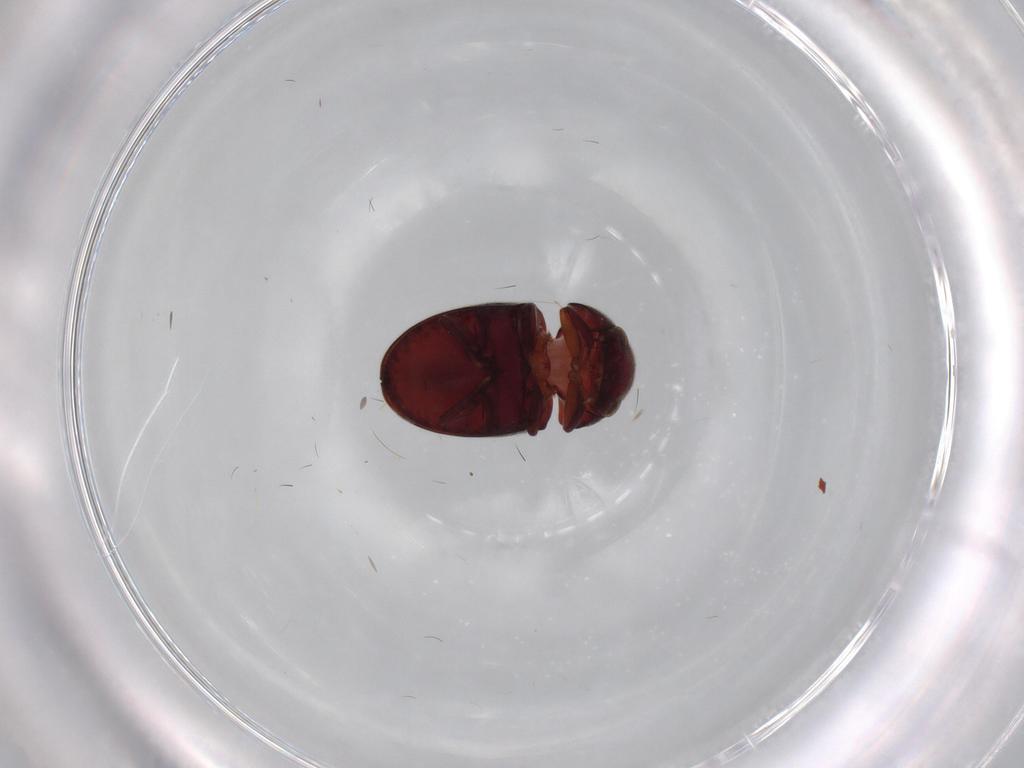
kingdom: Animalia
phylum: Arthropoda
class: Insecta
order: Coleoptera
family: Ptinidae
